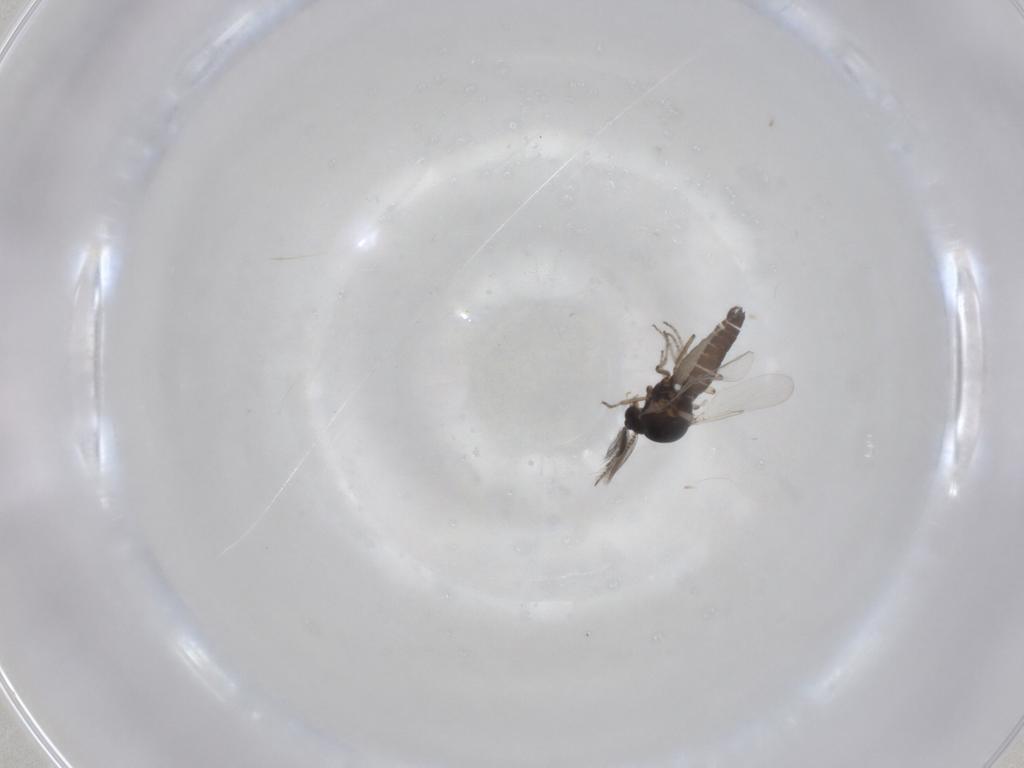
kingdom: Animalia
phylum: Arthropoda
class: Insecta
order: Diptera
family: Ceratopogonidae
